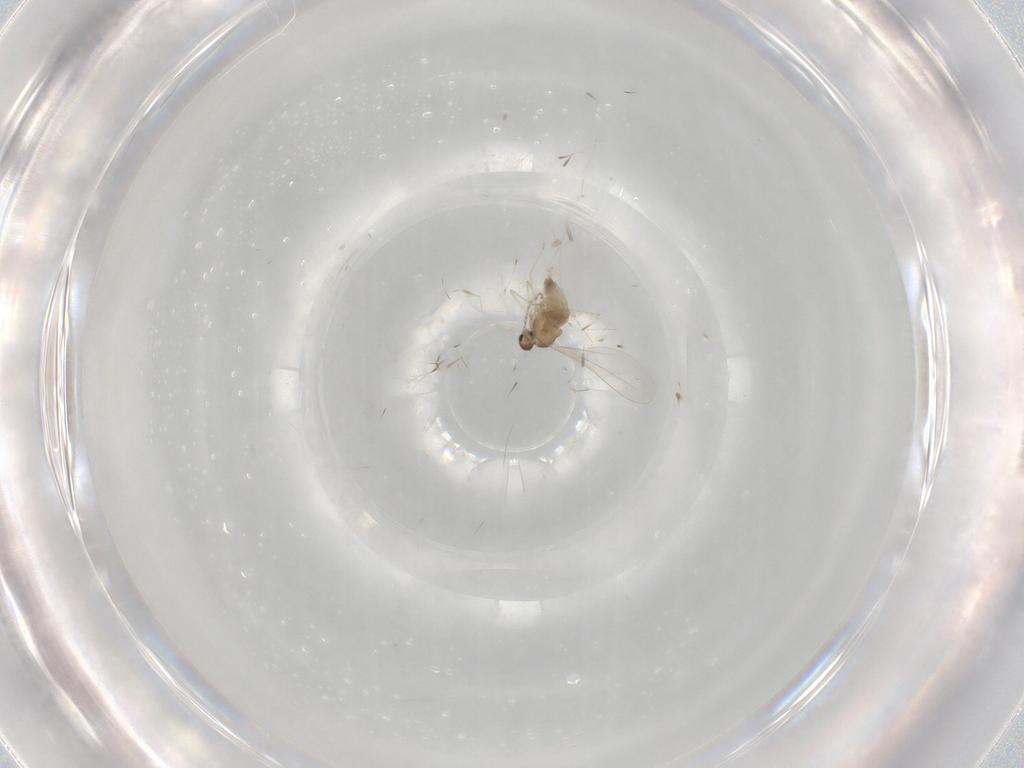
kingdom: Animalia
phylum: Arthropoda
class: Insecta
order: Diptera
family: Cecidomyiidae
